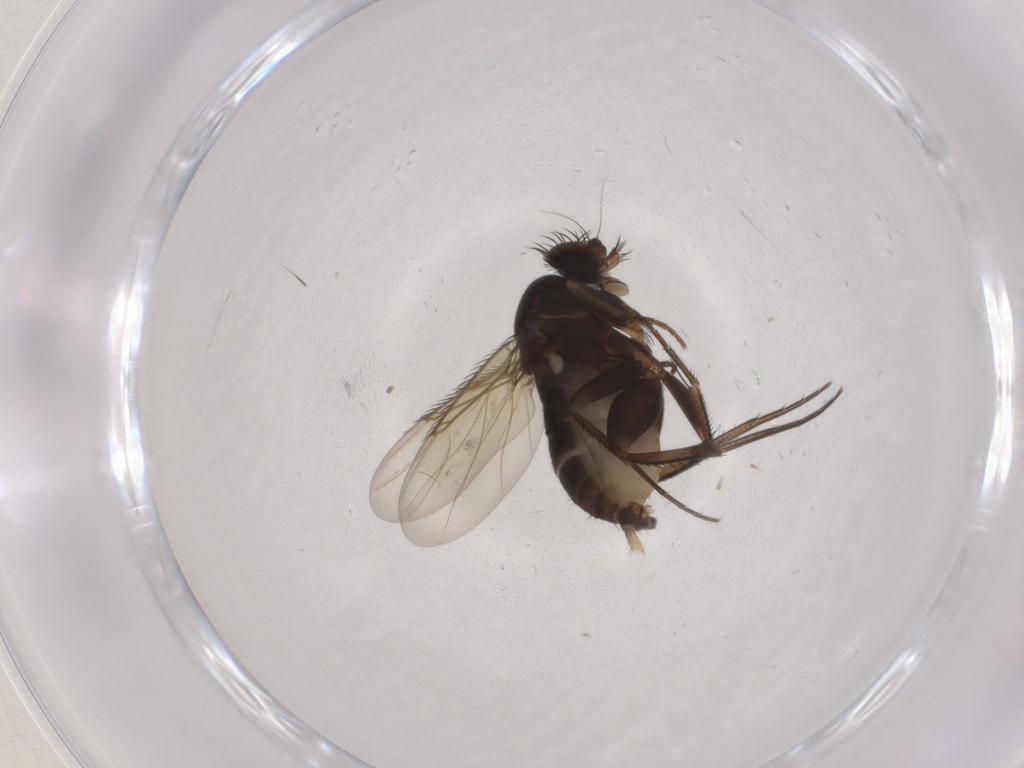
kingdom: Animalia
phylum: Arthropoda
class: Insecta
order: Diptera
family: Phoridae
